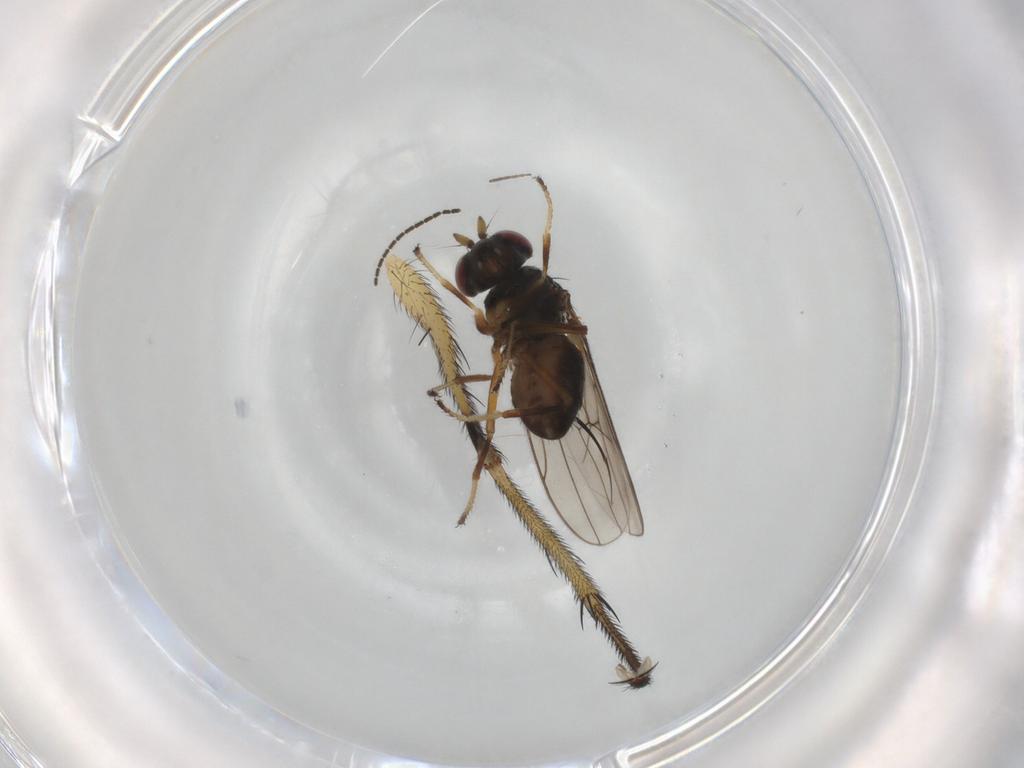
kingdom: Animalia
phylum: Arthropoda
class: Insecta
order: Diptera
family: Ephydridae
